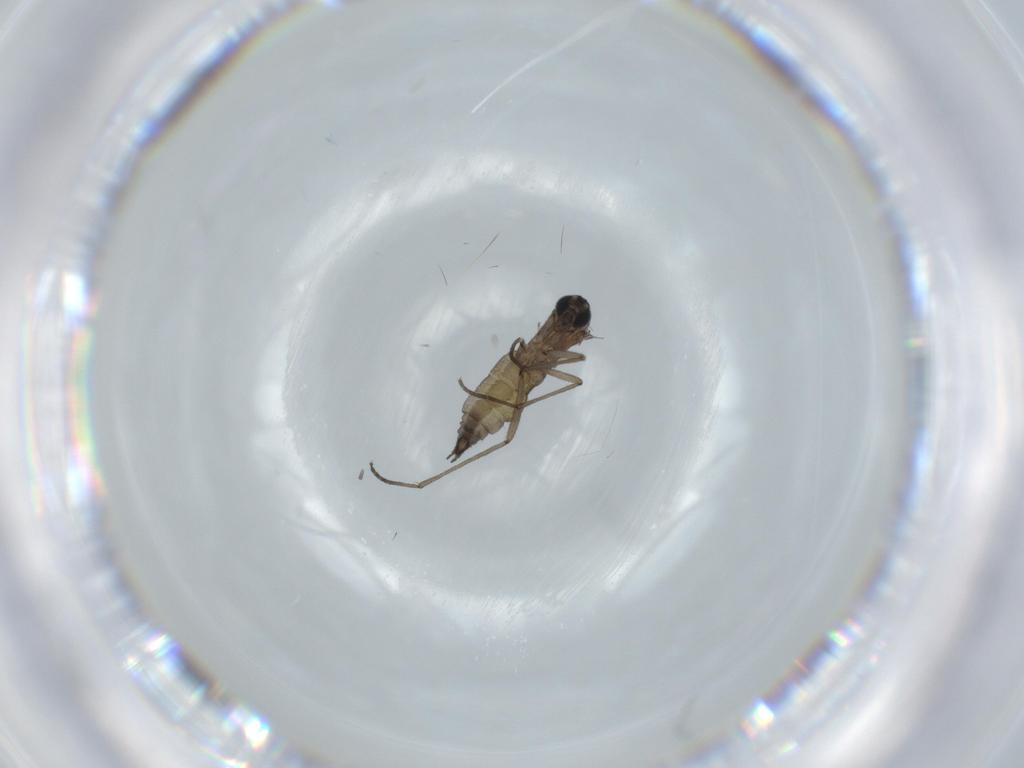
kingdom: Animalia
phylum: Arthropoda
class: Insecta
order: Diptera
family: Sciaridae
